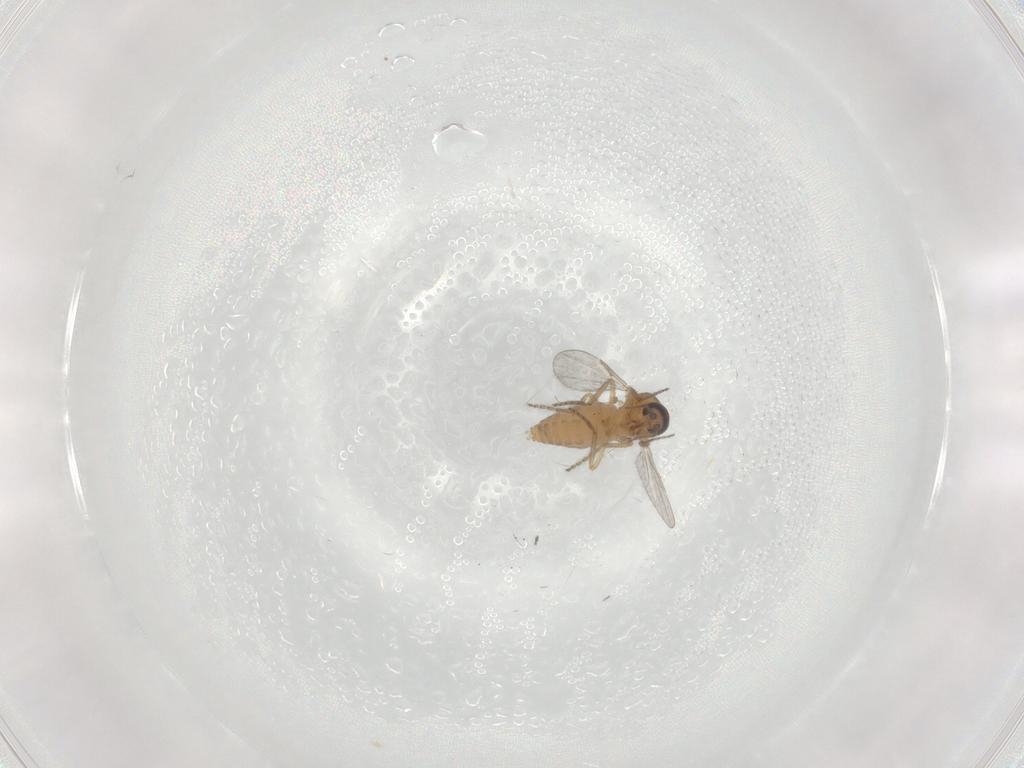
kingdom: Animalia
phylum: Arthropoda
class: Insecta
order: Diptera
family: Ceratopogonidae
